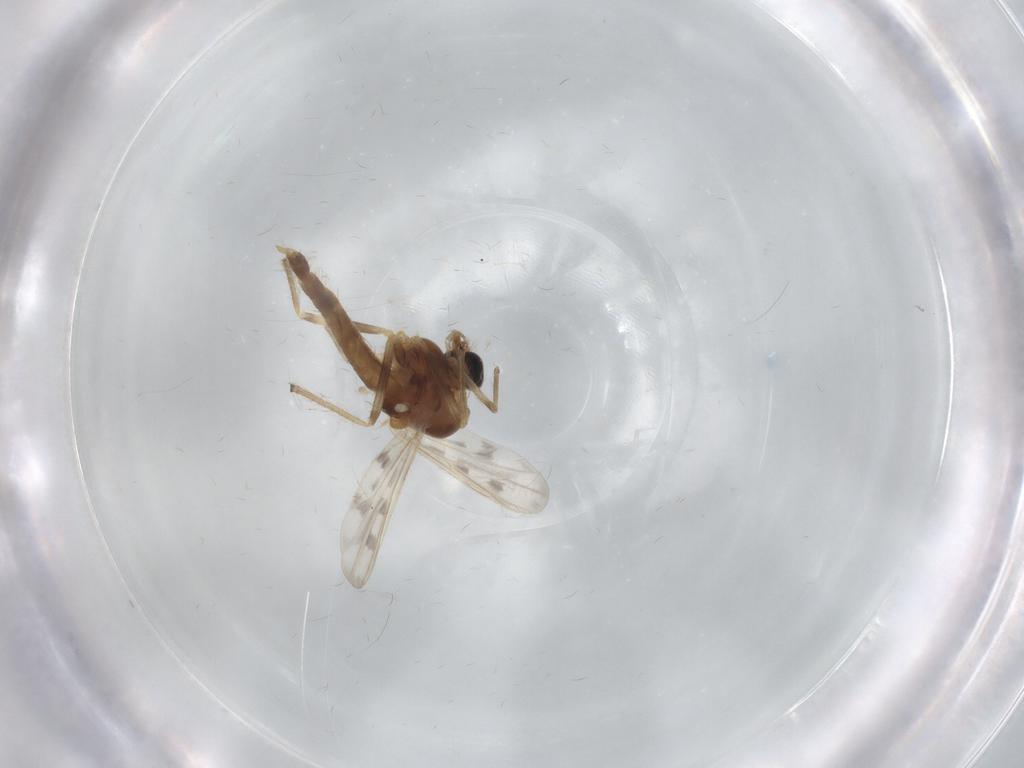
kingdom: Animalia
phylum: Arthropoda
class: Insecta
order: Diptera
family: Chironomidae
